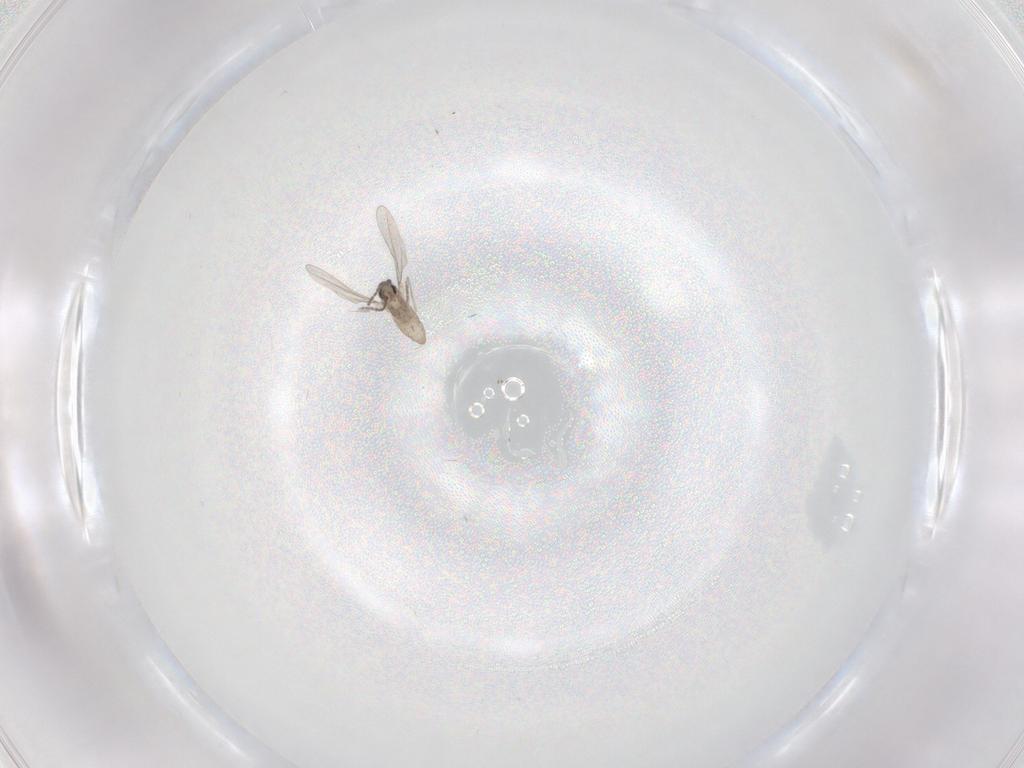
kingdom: Animalia
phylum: Arthropoda
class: Insecta
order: Diptera
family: Cecidomyiidae
